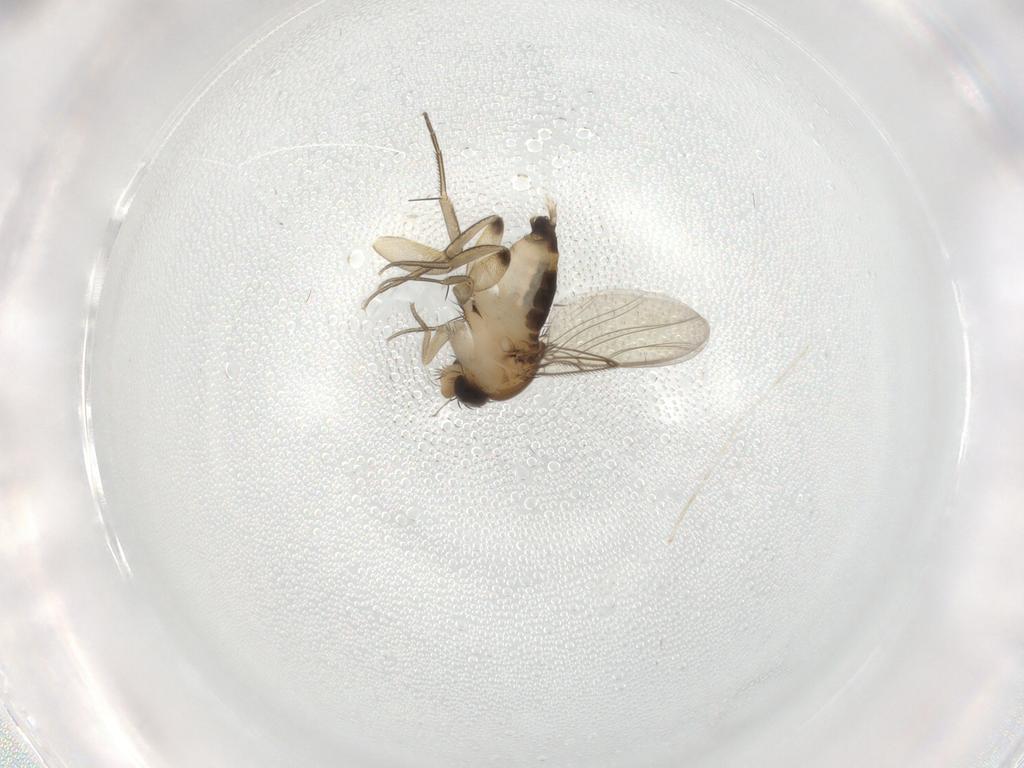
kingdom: Animalia
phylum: Arthropoda
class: Insecta
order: Diptera
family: Phoridae
